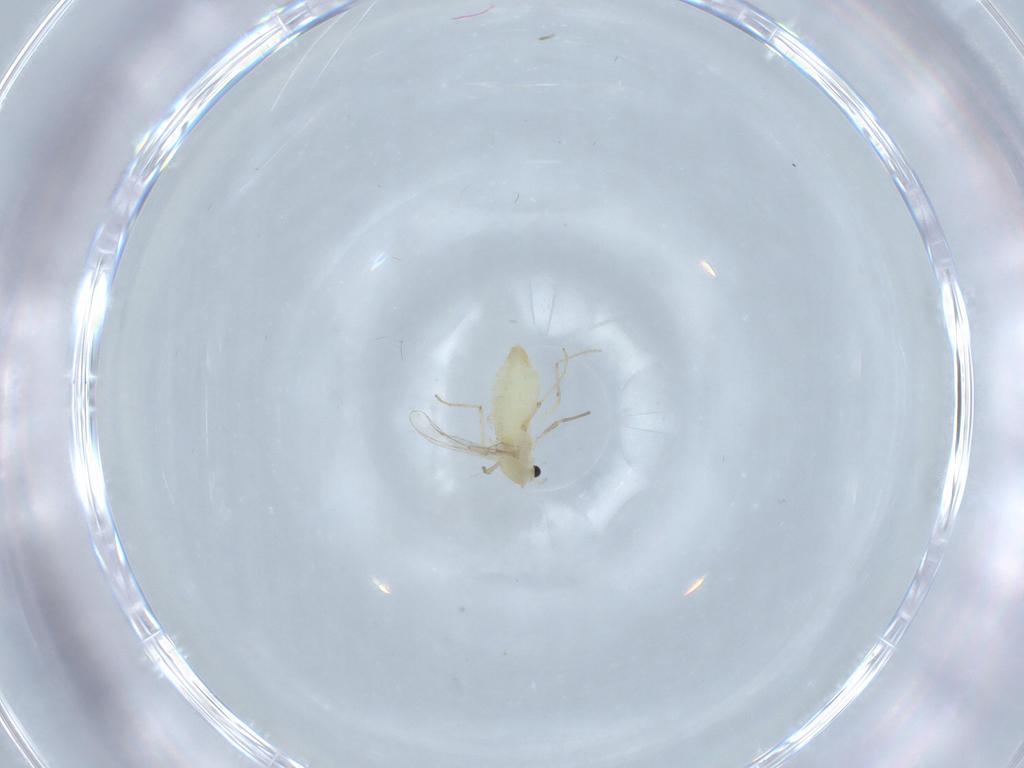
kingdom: Animalia
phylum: Arthropoda
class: Insecta
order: Diptera
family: Chironomidae
